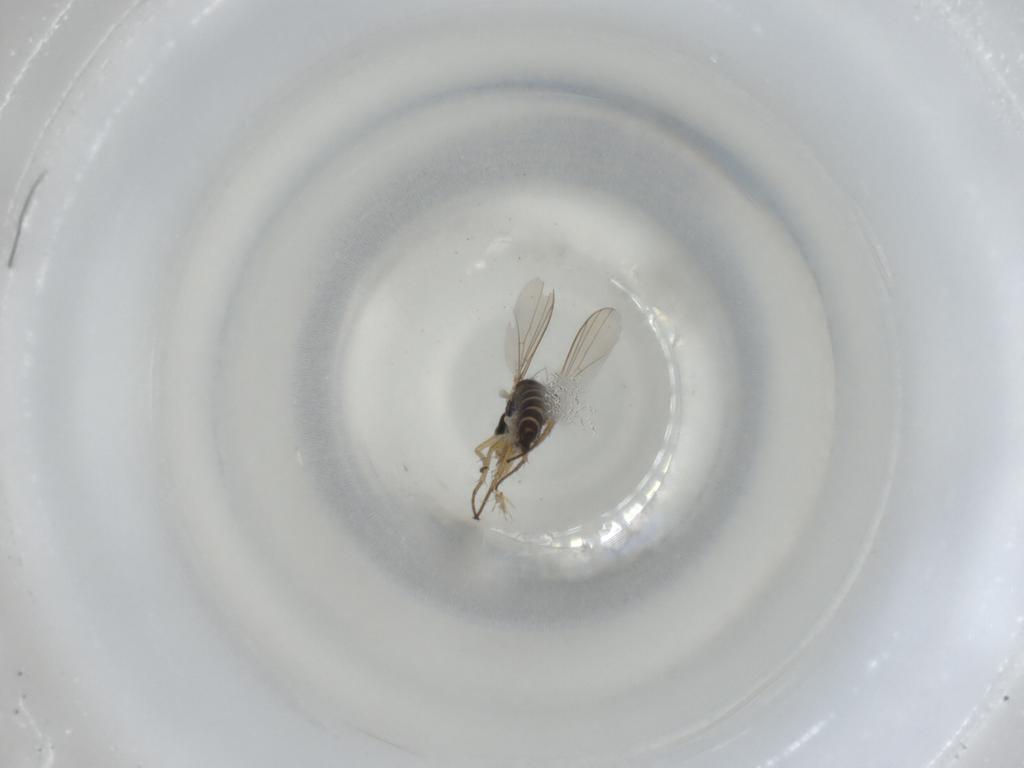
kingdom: Animalia
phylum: Arthropoda
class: Insecta
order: Diptera
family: Dolichopodidae
